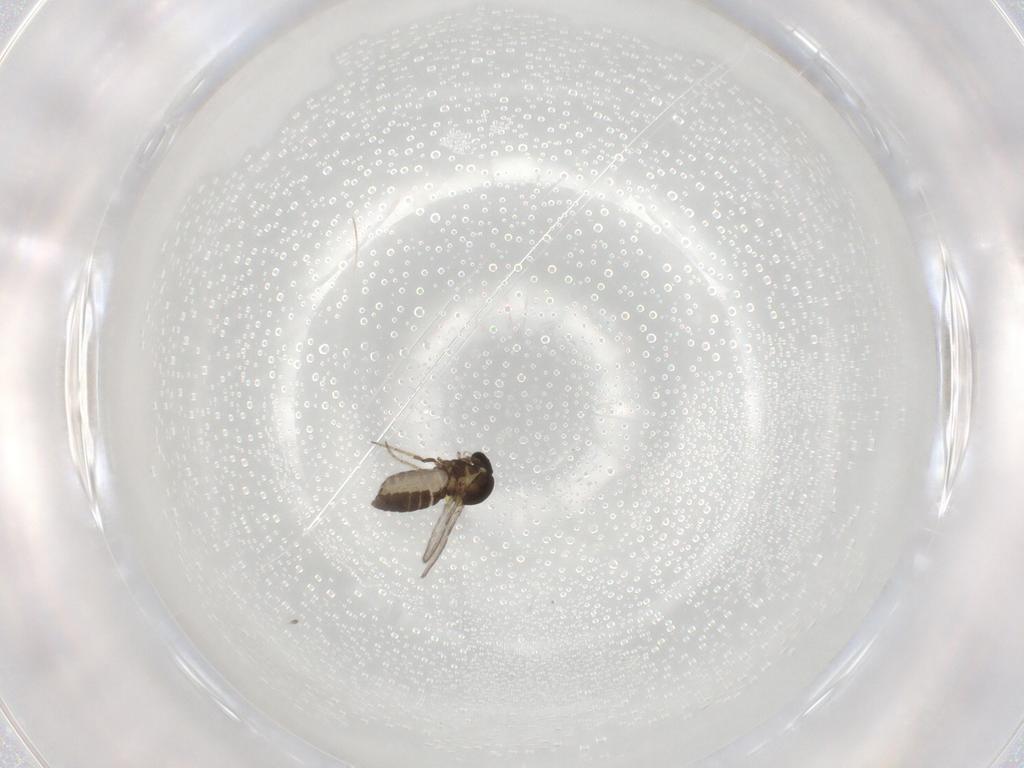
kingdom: Animalia
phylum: Arthropoda
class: Insecta
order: Diptera
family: Ceratopogonidae
